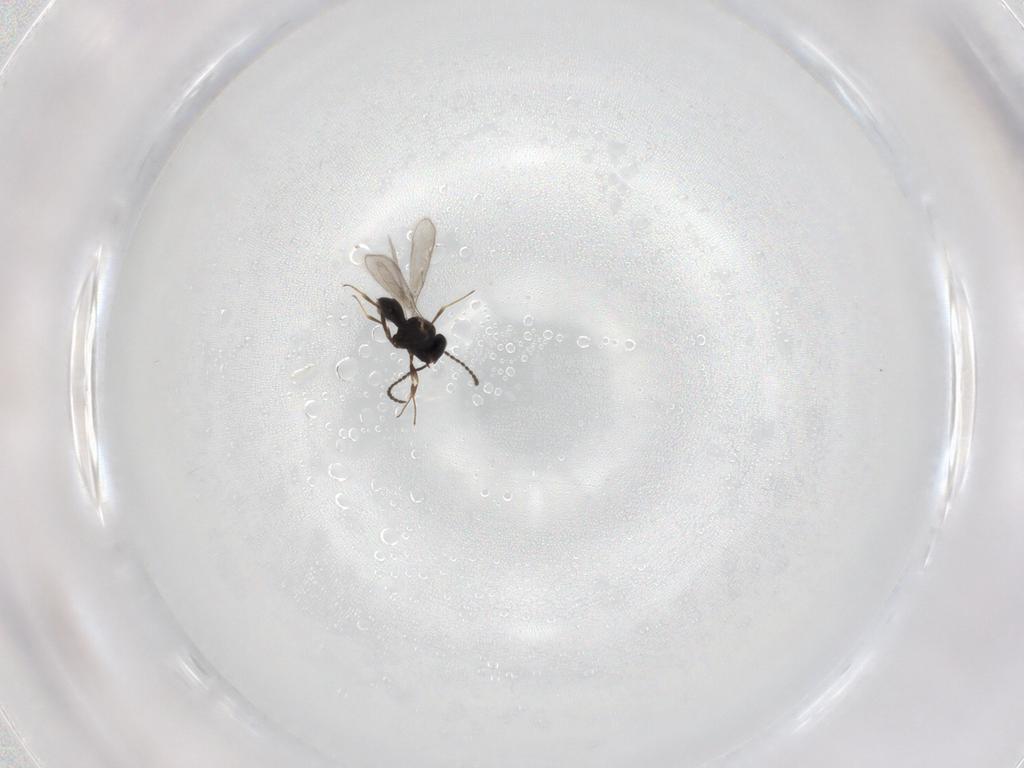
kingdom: Animalia
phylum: Arthropoda
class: Insecta
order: Hymenoptera
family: Scelionidae
